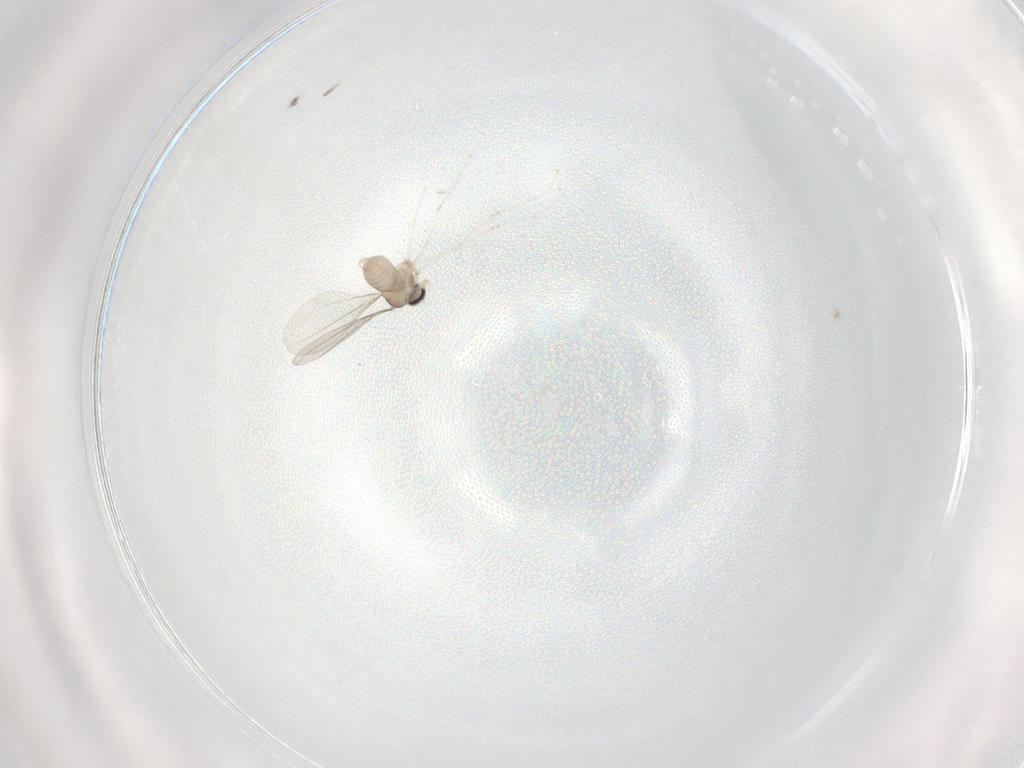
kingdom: Animalia
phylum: Arthropoda
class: Insecta
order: Diptera
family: Cecidomyiidae
